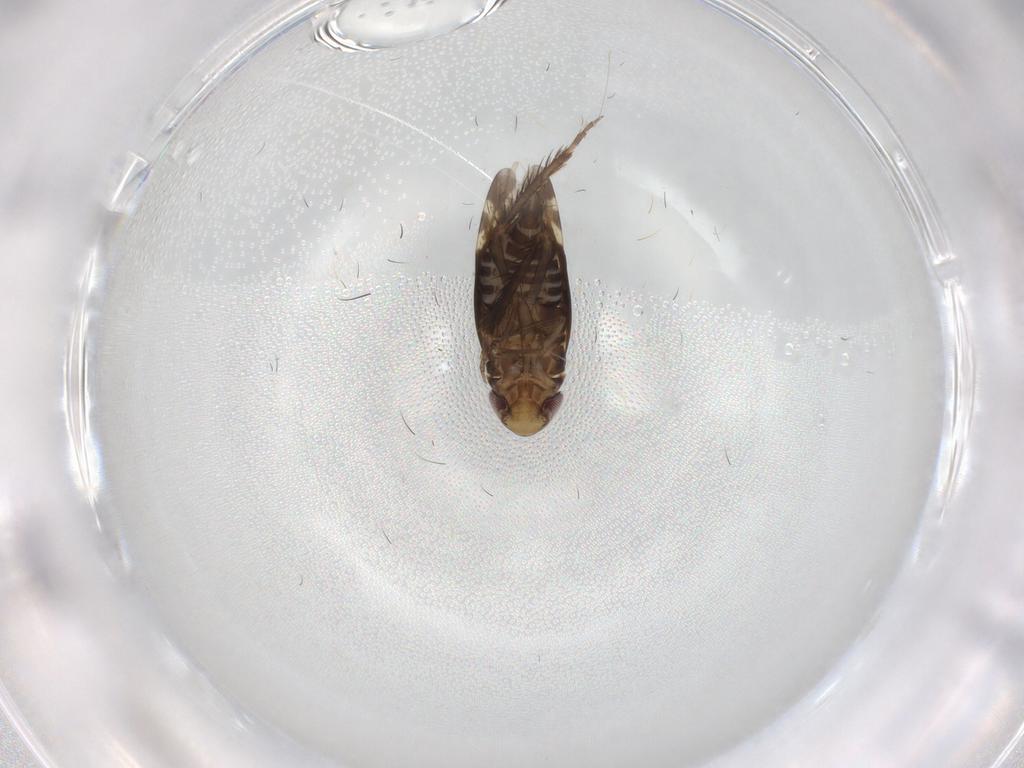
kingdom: Animalia
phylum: Arthropoda
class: Insecta
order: Hemiptera
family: Cicadellidae
